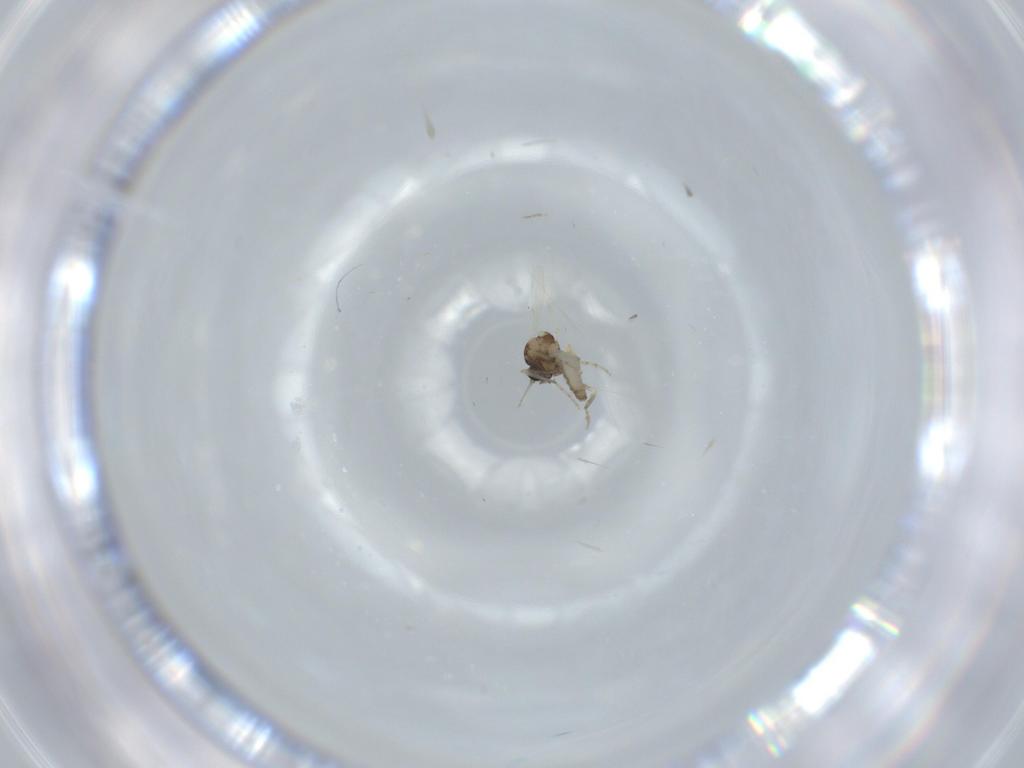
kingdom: Animalia
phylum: Arthropoda
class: Insecta
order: Diptera
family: Ceratopogonidae
